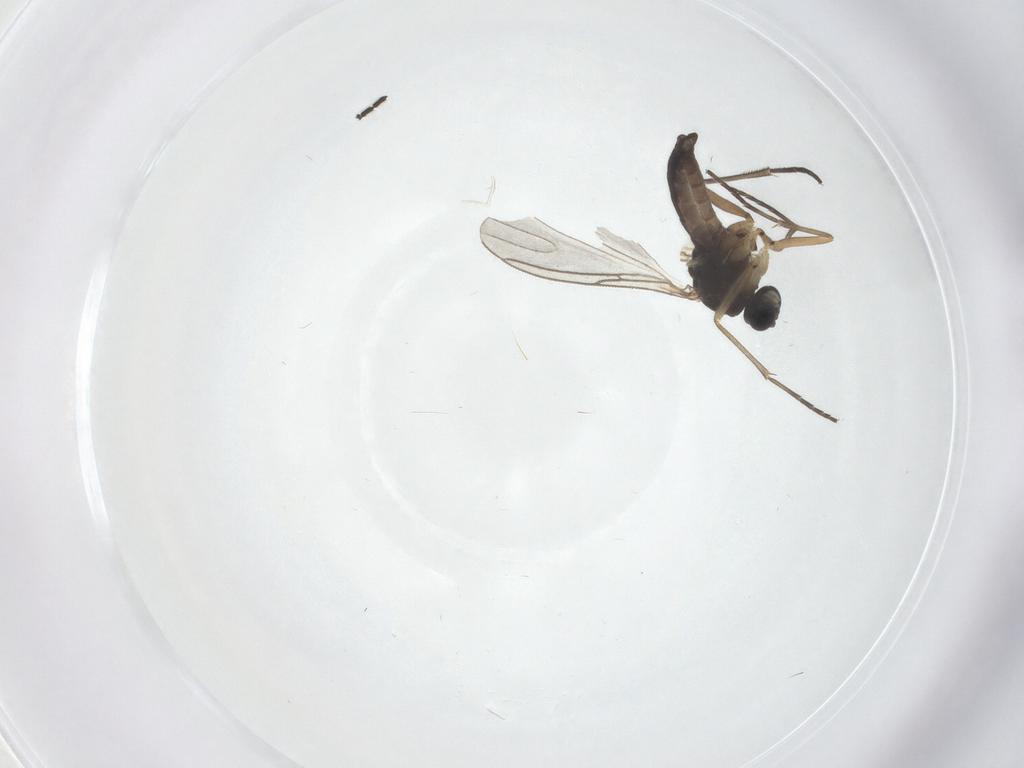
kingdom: Animalia
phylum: Arthropoda
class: Insecta
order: Diptera
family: Sciaridae
